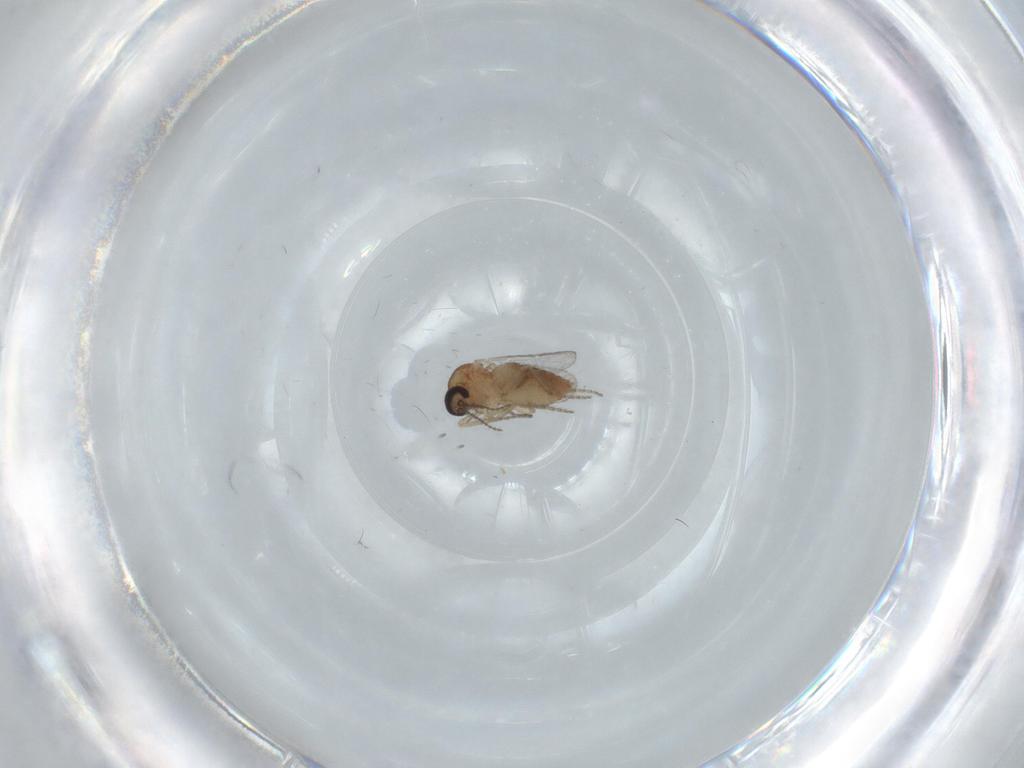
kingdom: Animalia
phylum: Arthropoda
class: Insecta
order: Diptera
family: Ceratopogonidae
